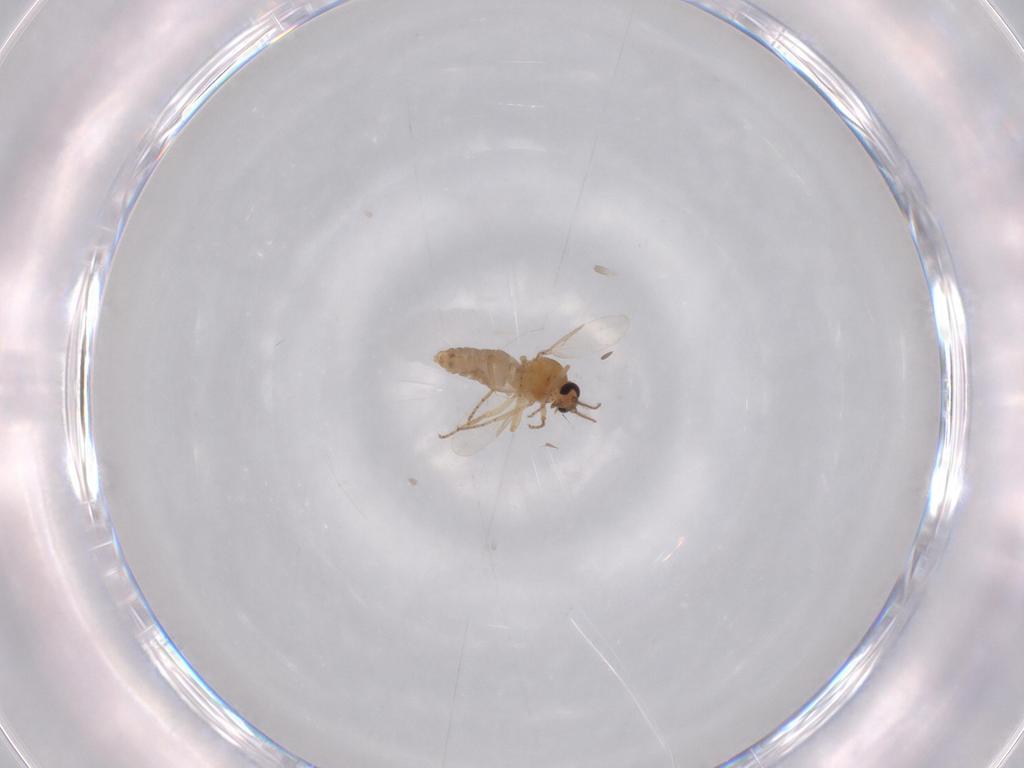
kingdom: Animalia
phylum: Arthropoda
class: Insecta
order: Diptera
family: Ceratopogonidae
